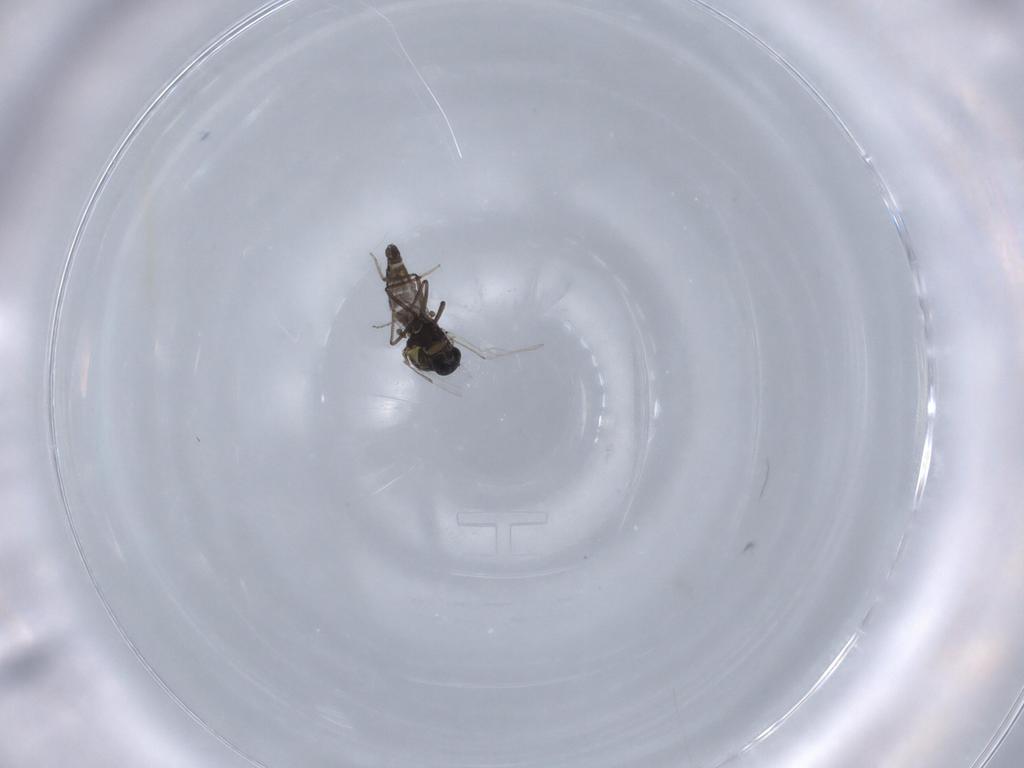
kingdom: Animalia
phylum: Arthropoda
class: Insecta
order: Diptera
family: Ceratopogonidae
